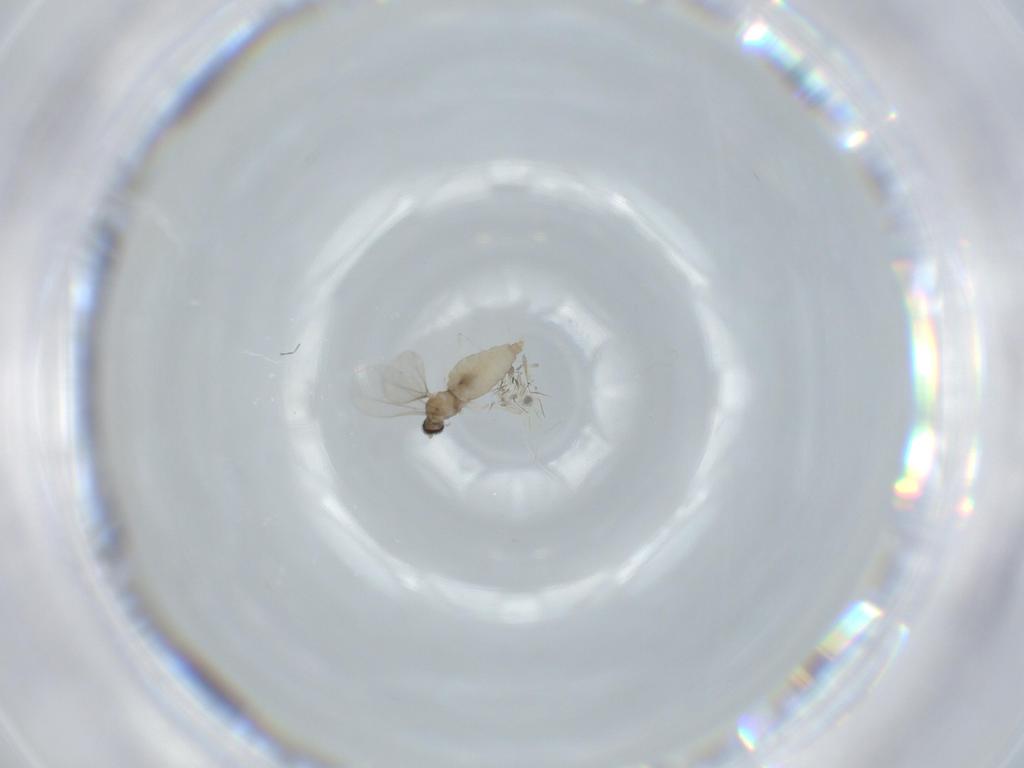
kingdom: Animalia
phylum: Arthropoda
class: Insecta
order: Diptera
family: Cecidomyiidae
